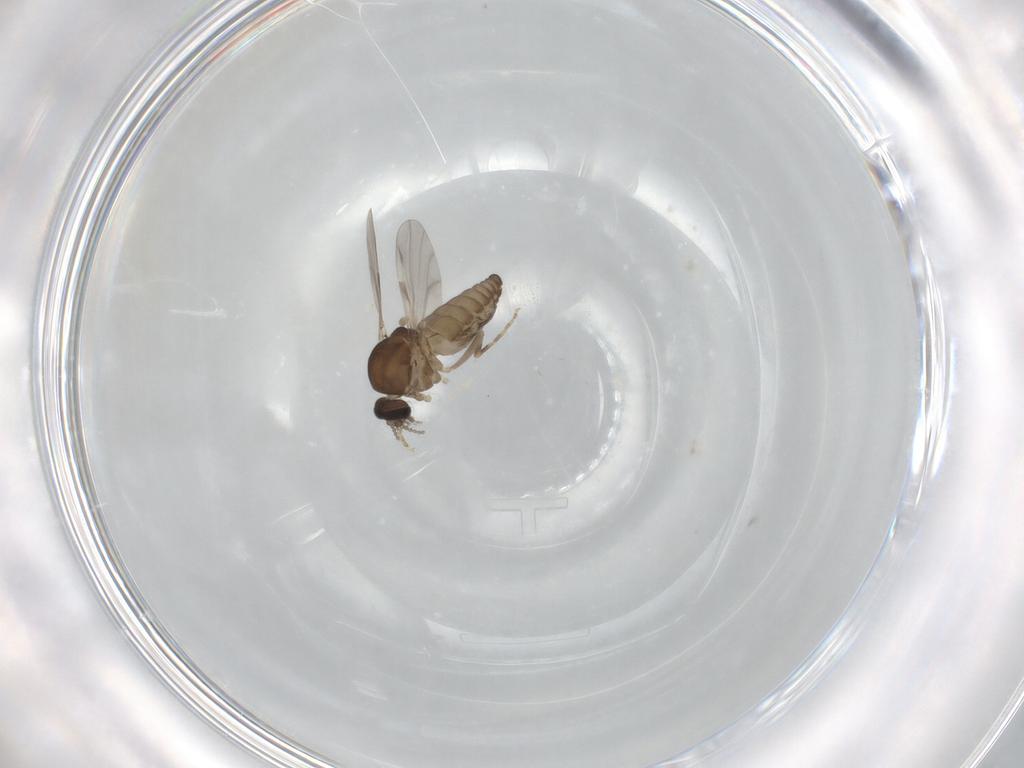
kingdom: Animalia
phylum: Arthropoda
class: Insecta
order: Diptera
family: Ceratopogonidae
